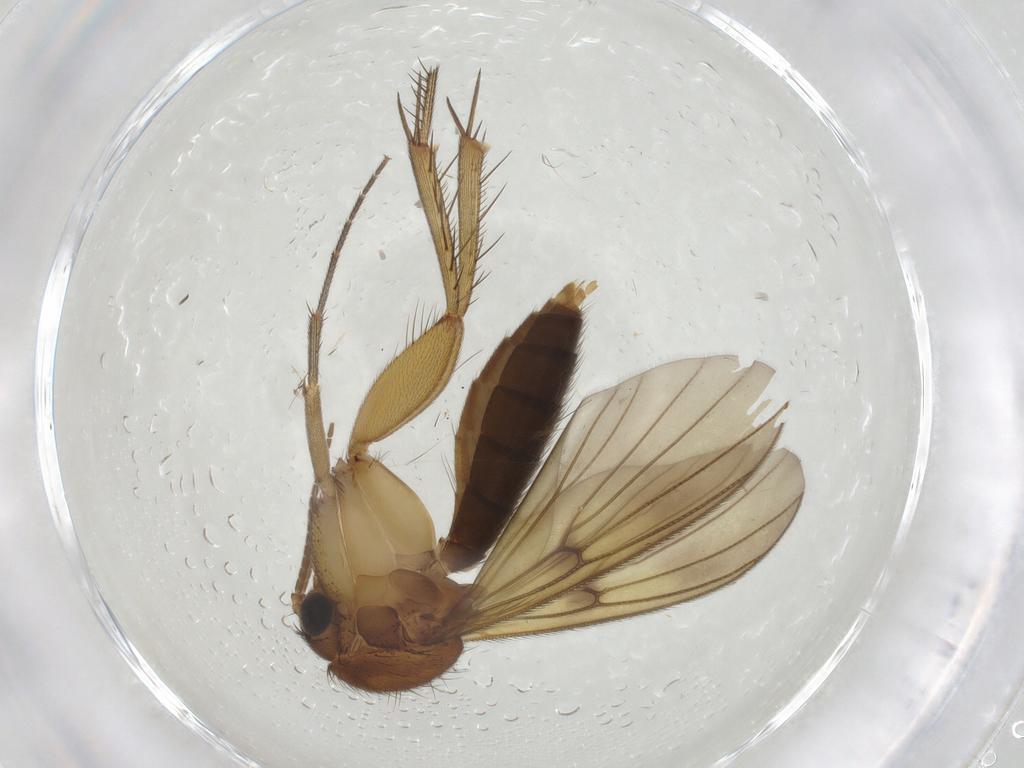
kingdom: Animalia
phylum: Arthropoda
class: Insecta
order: Diptera
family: Mycetophilidae
